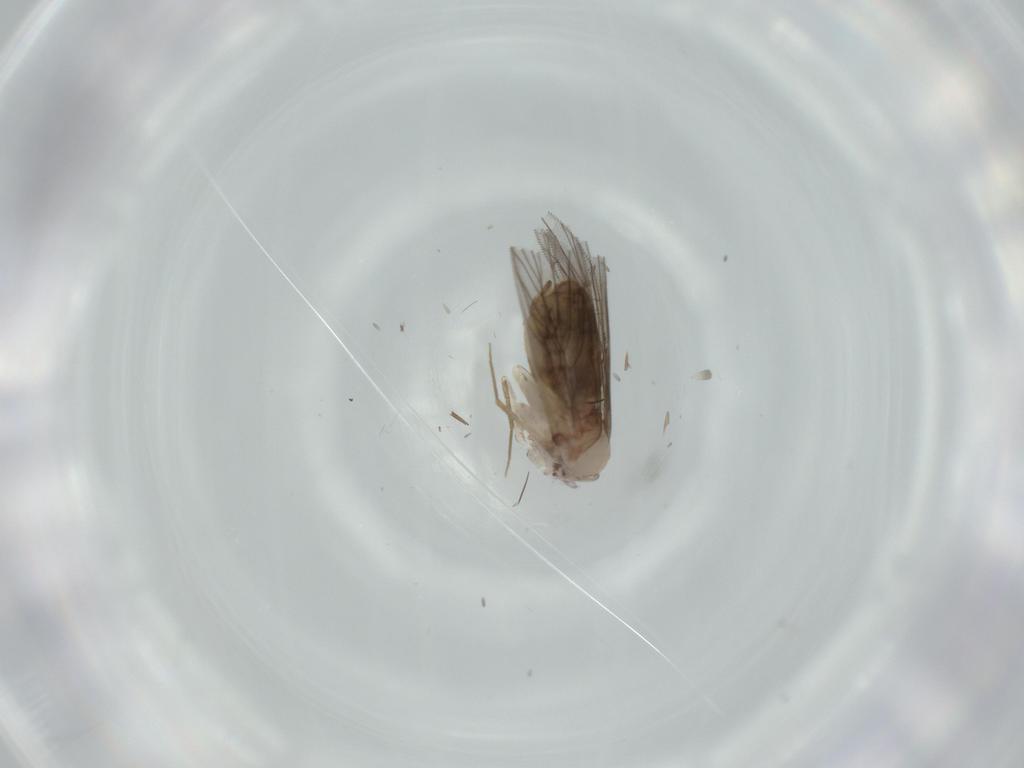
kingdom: Animalia
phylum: Arthropoda
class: Insecta
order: Psocodea
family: Lepidopsocidae
